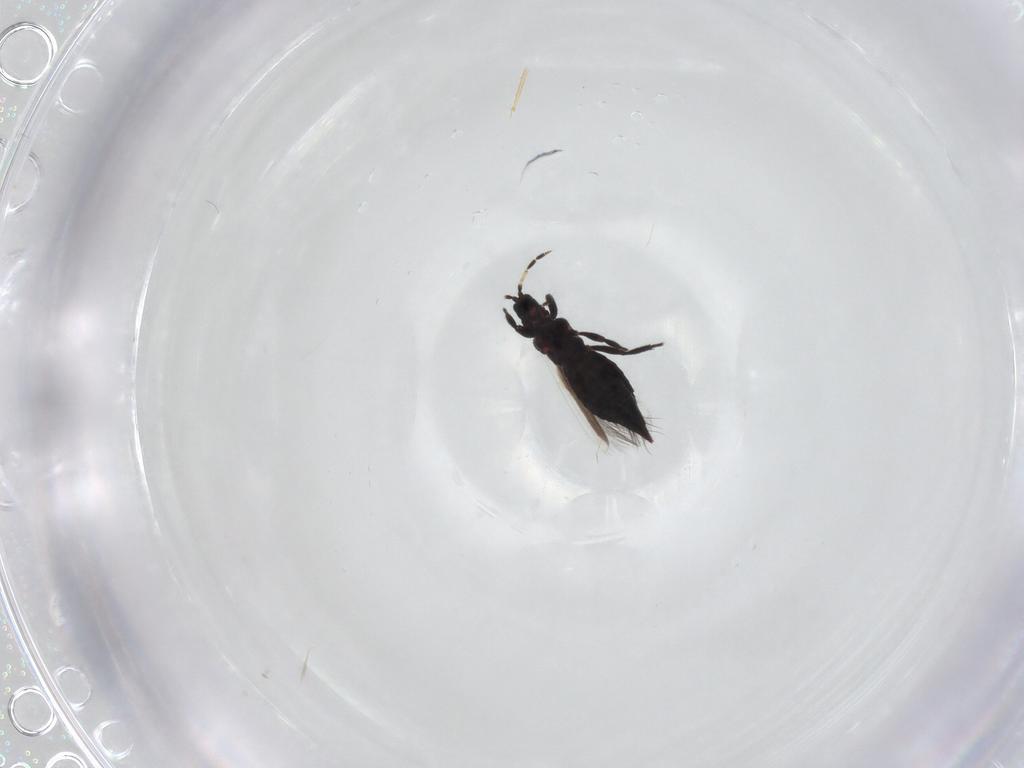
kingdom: Animalia
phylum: Arthropoda
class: Insecta
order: Thysanoptera
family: Aeolothripidae
